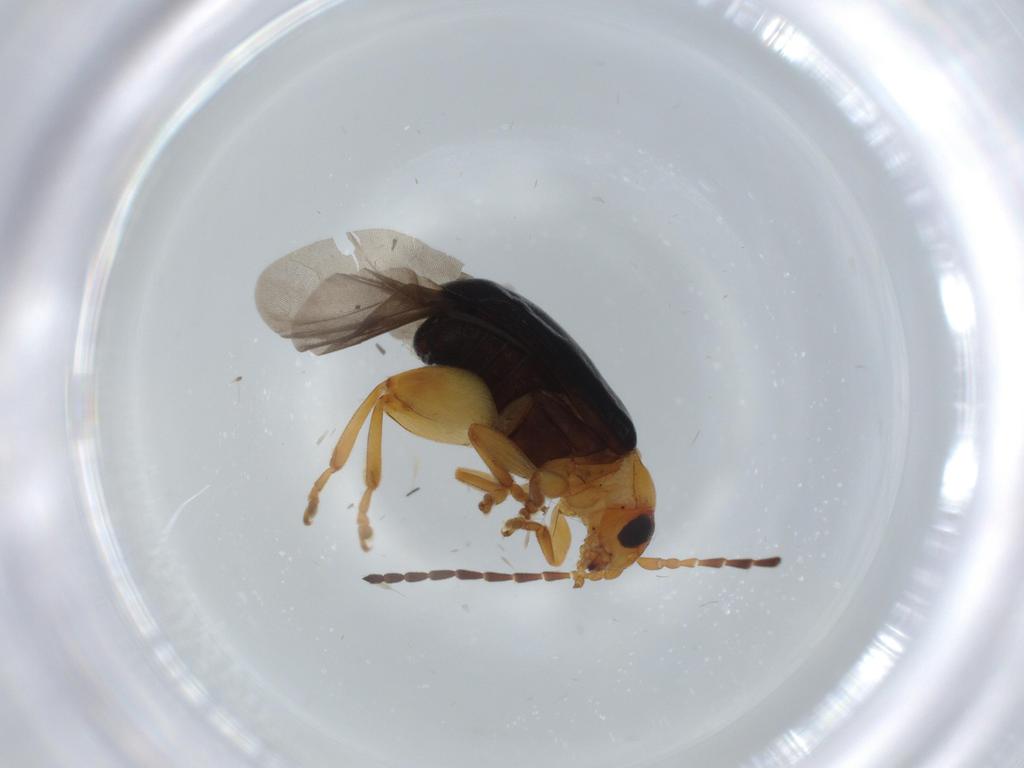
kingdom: Animalia
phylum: Arthropoda
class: Insecta
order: Coleoptera
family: Chrysomelidae
